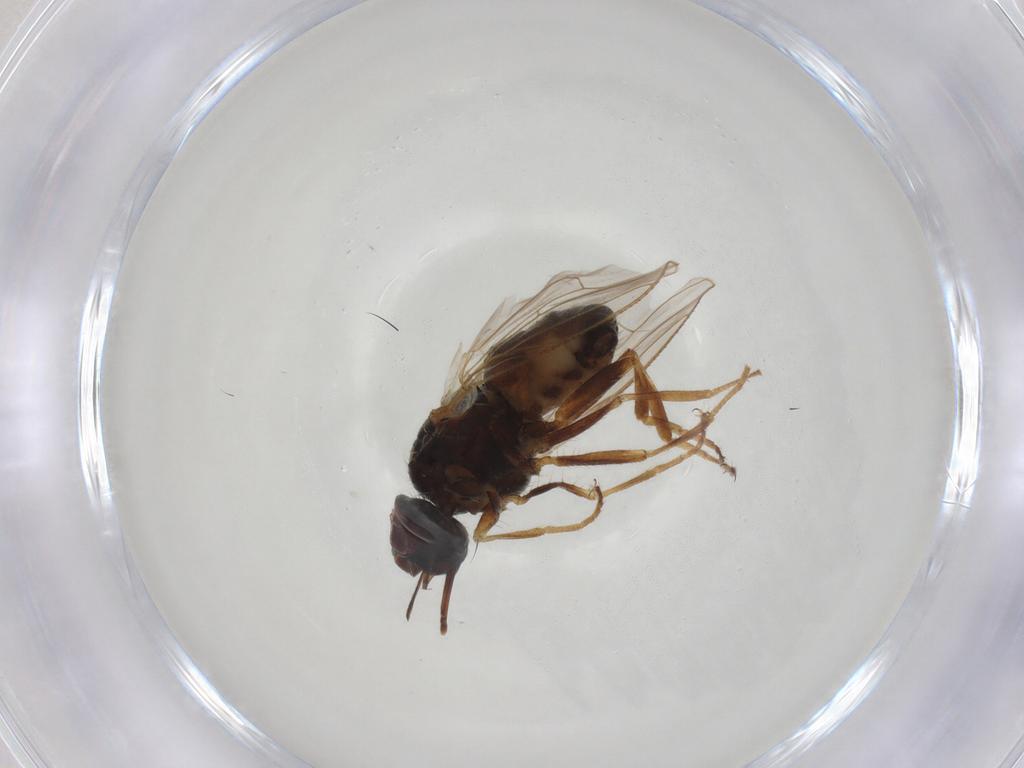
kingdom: Animalia
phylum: Arthropoda
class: Insecta
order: Diptera
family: Muscidae
